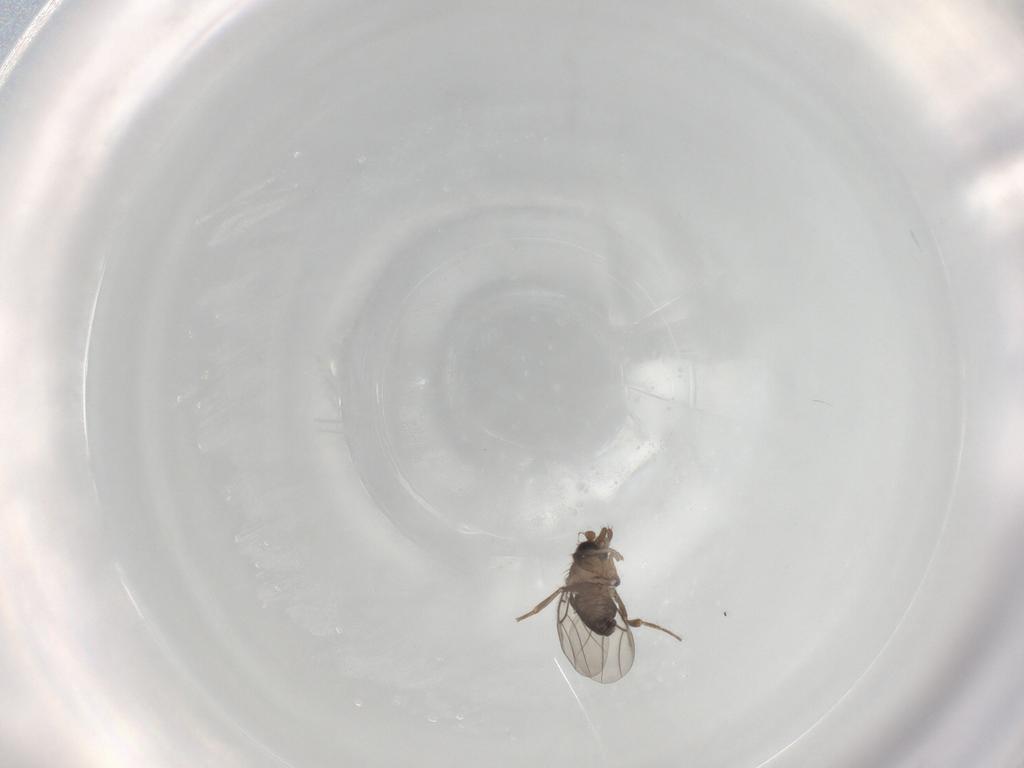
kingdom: Animalia
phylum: Arthropoda
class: Insecta
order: Diptera
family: Phoridae
